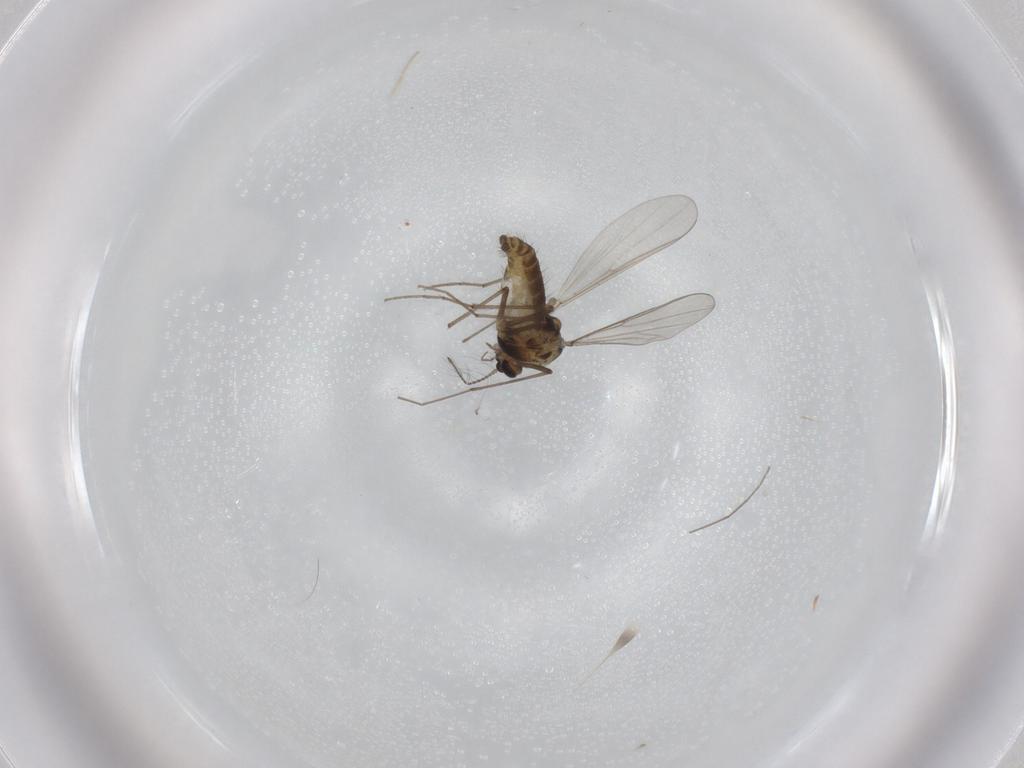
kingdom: Animalia
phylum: Arthropoda
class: Insecta
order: Diptera
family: Chironomidae
